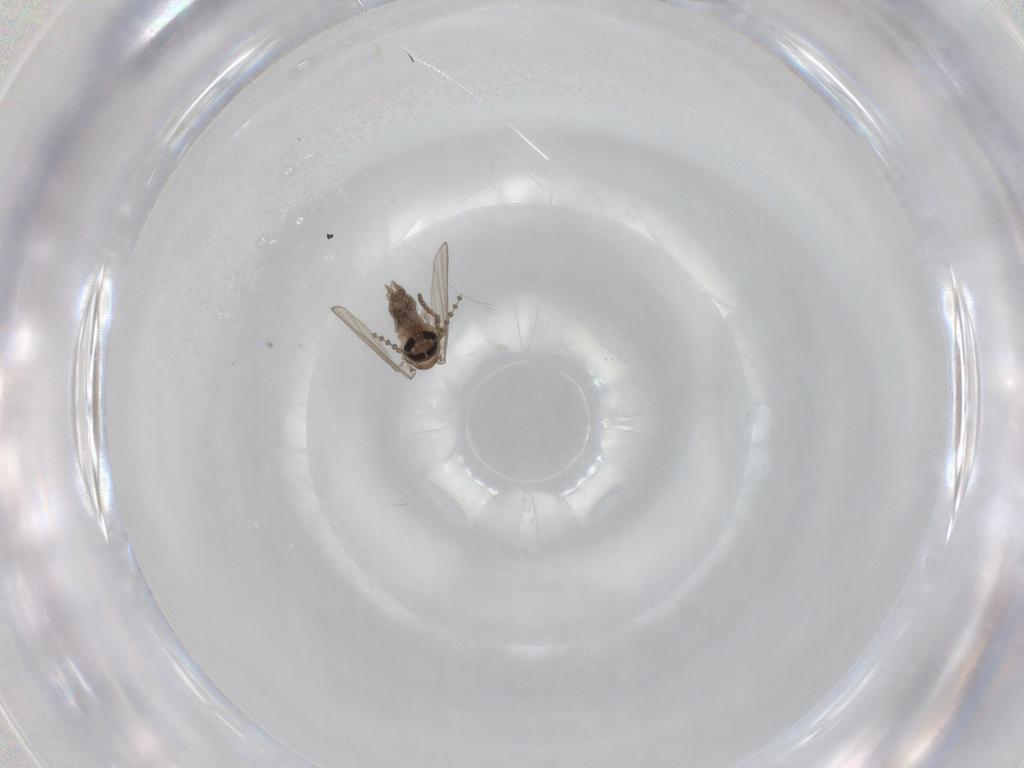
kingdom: Animalia
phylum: Arthropoda
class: Insecta
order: Diptera
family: Psychodidae
